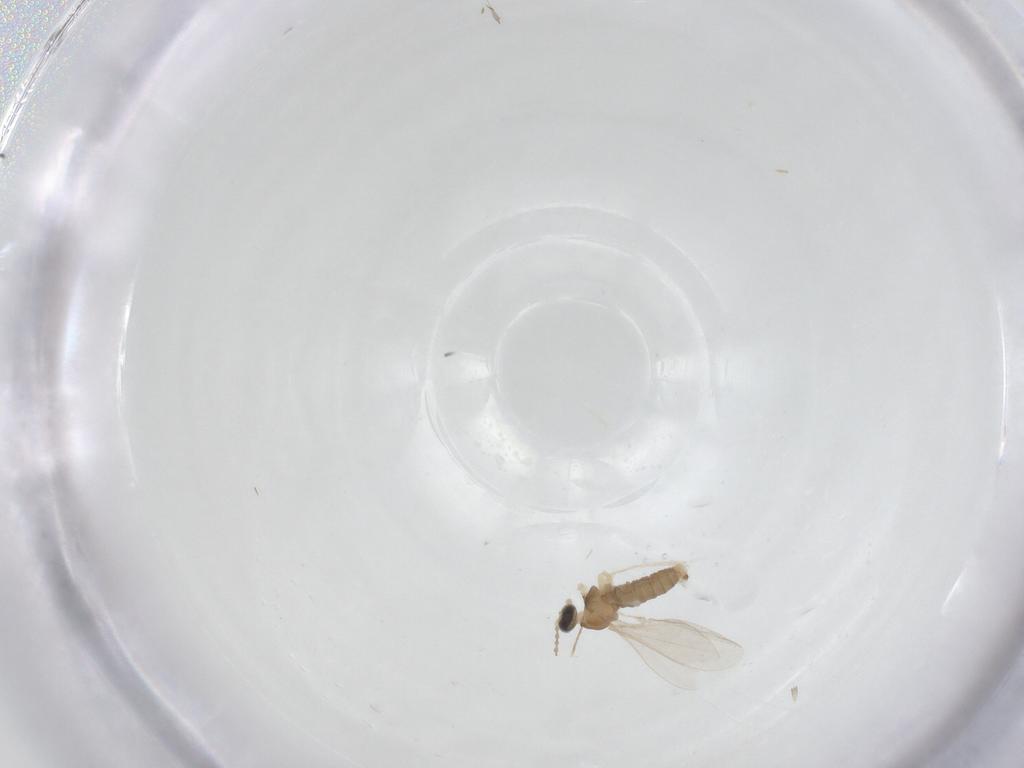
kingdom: Animalia
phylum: Arthropoda
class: Insecta
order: Diptera
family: Cecidomyiidae
